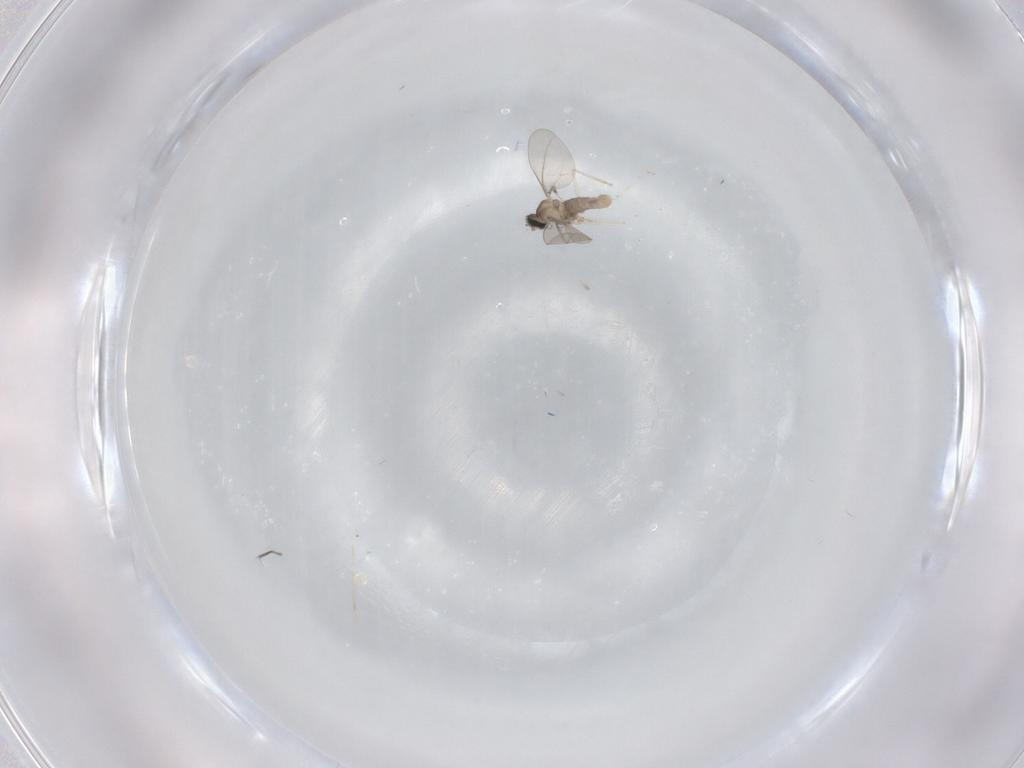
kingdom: Animalia
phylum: Arthropoda
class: Insecta
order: Diptera
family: Cecidomyiidae
